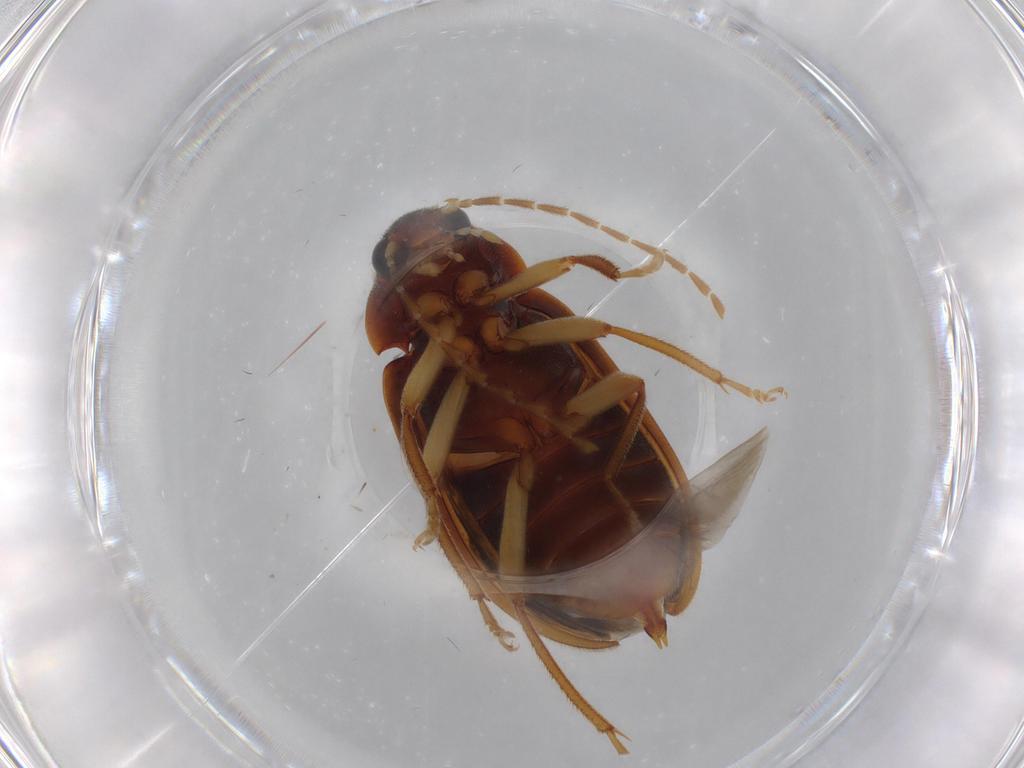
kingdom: Animalia
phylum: Arthropoda
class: Insecta
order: Coleoptera
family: Ptilodactylidae
